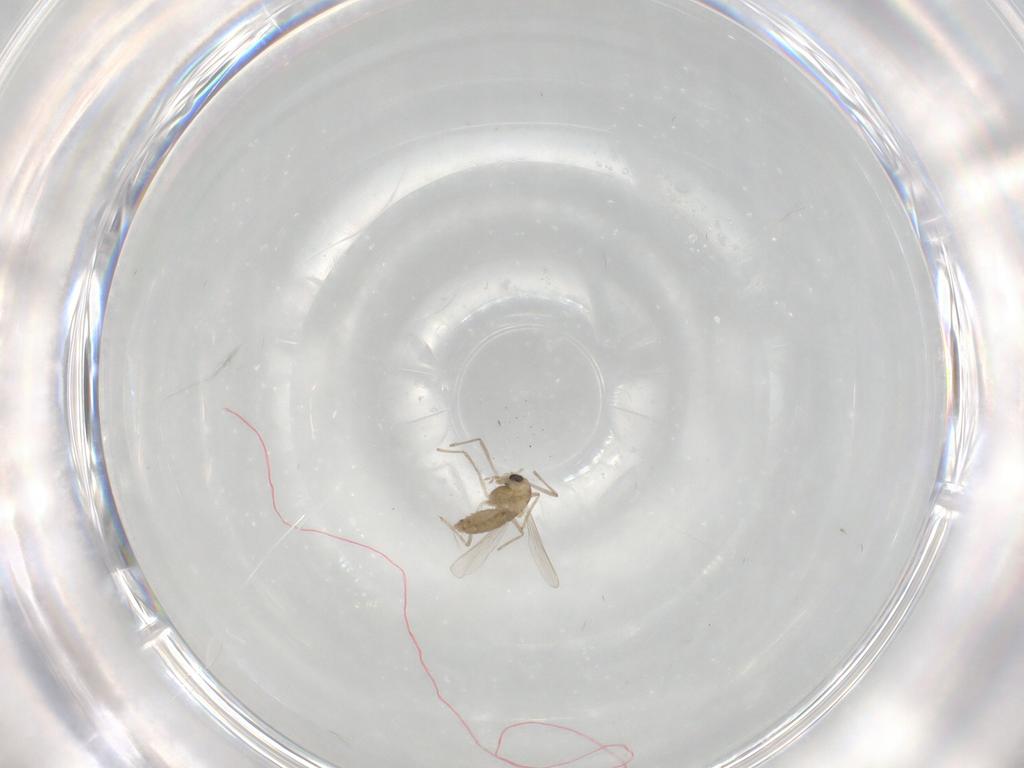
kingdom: Animalia
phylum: Arthropoda
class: Insecta
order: Diptera
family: Chironomidae
